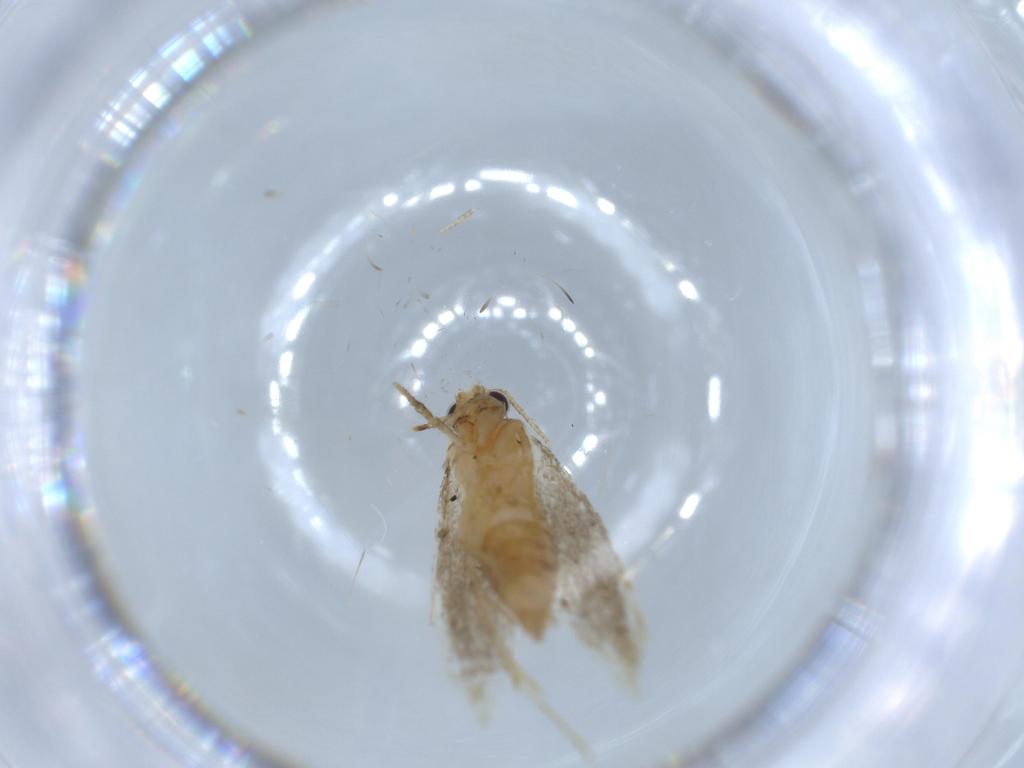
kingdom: Animalia
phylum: Arthropoda
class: Insecta
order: Lepidoptera
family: Tineidae
